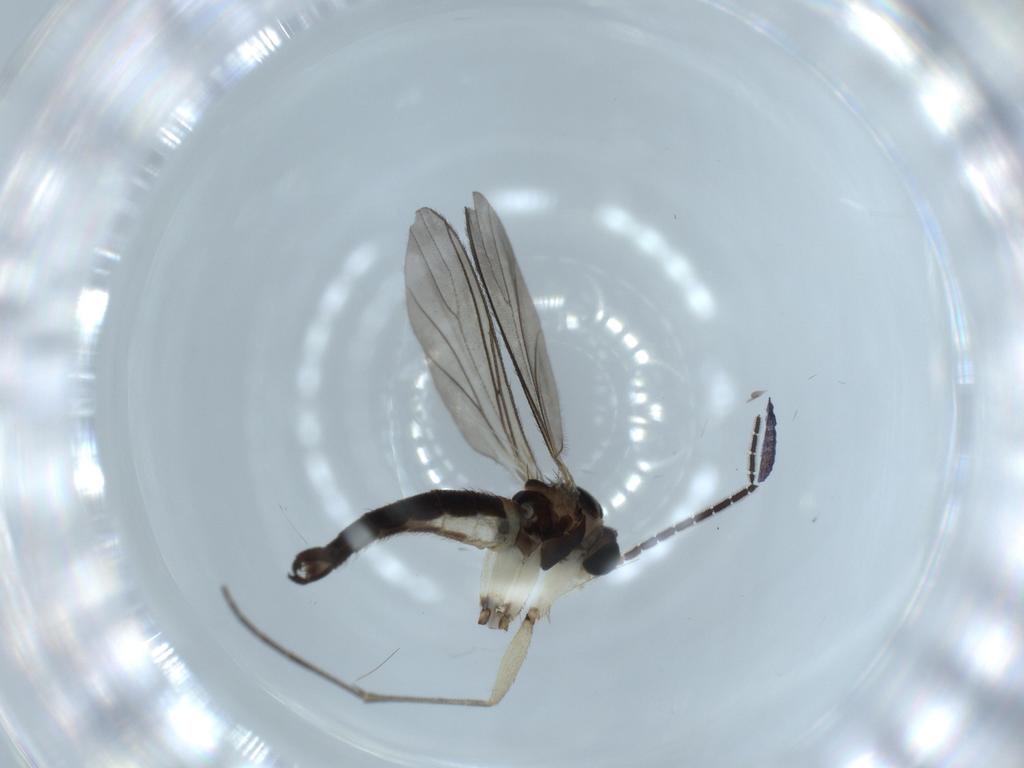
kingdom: Animalia
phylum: Arthropoda
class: Insecta
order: Diptera
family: Sciaridae
